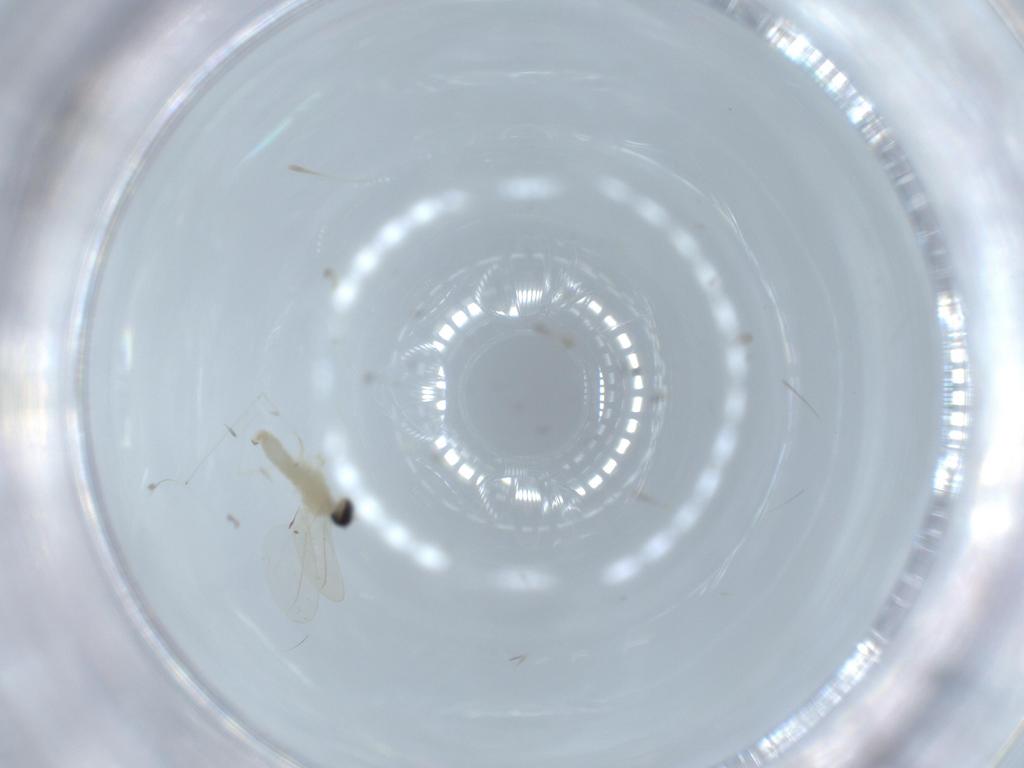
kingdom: Animalia
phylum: Arthropoda
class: Insecta
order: Diptera
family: Cecidomyiidae
